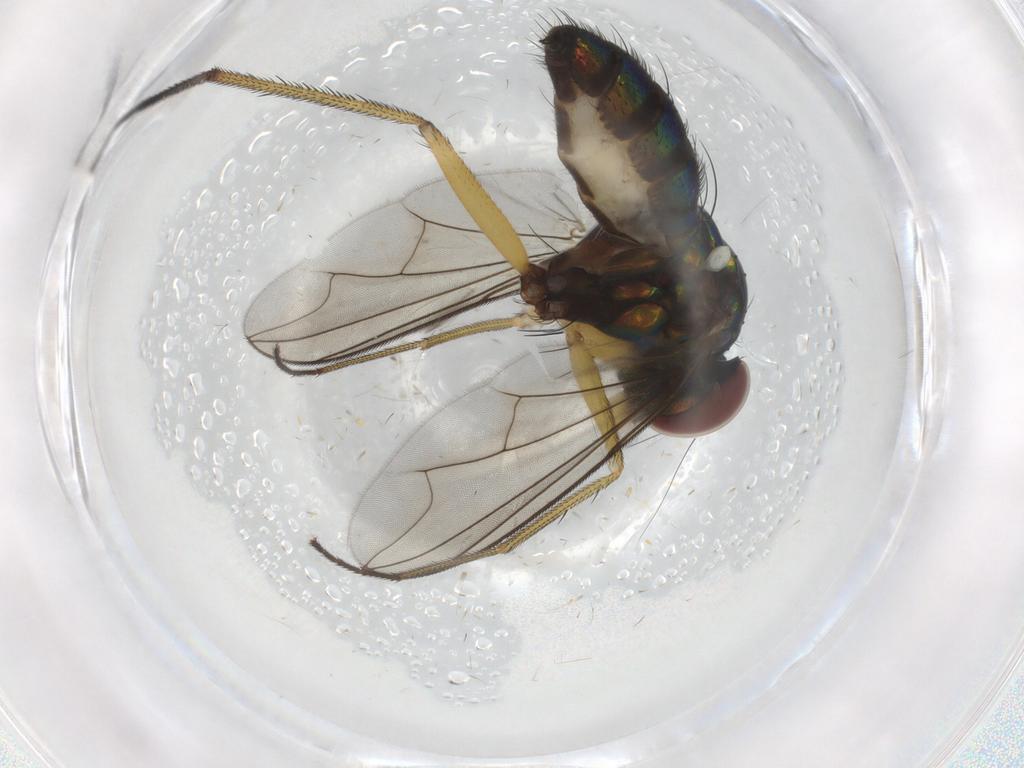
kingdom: Animalia
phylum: Arthropoda
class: Insecta
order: Diptera
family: Dolichopodidae
